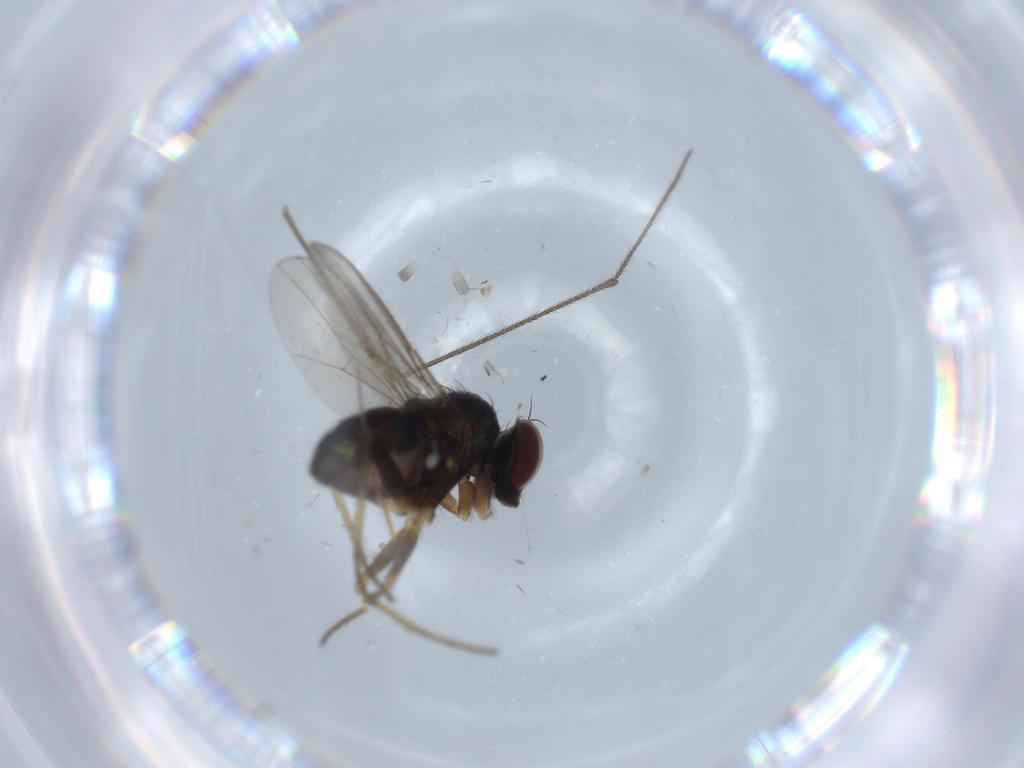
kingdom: Animalia
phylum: Arthropoda
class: Insecta
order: Diptera
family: Limoniidae
